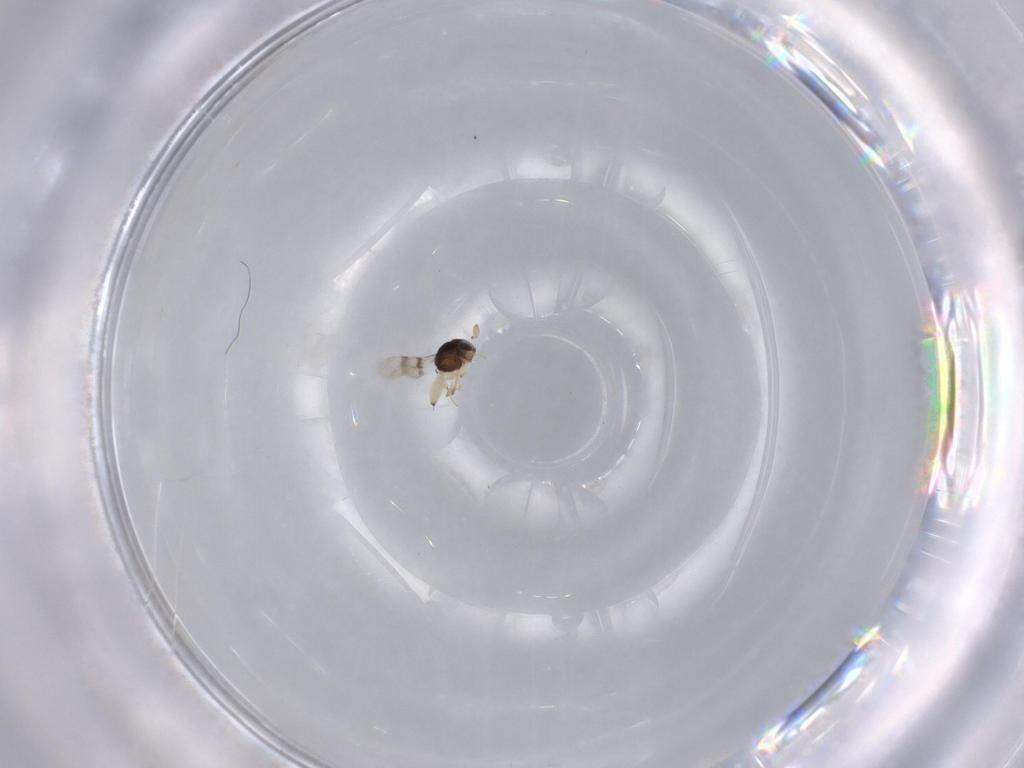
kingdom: Animalia
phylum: Arthropoda
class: Insecta
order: Hymenoptera
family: Scelionidae
